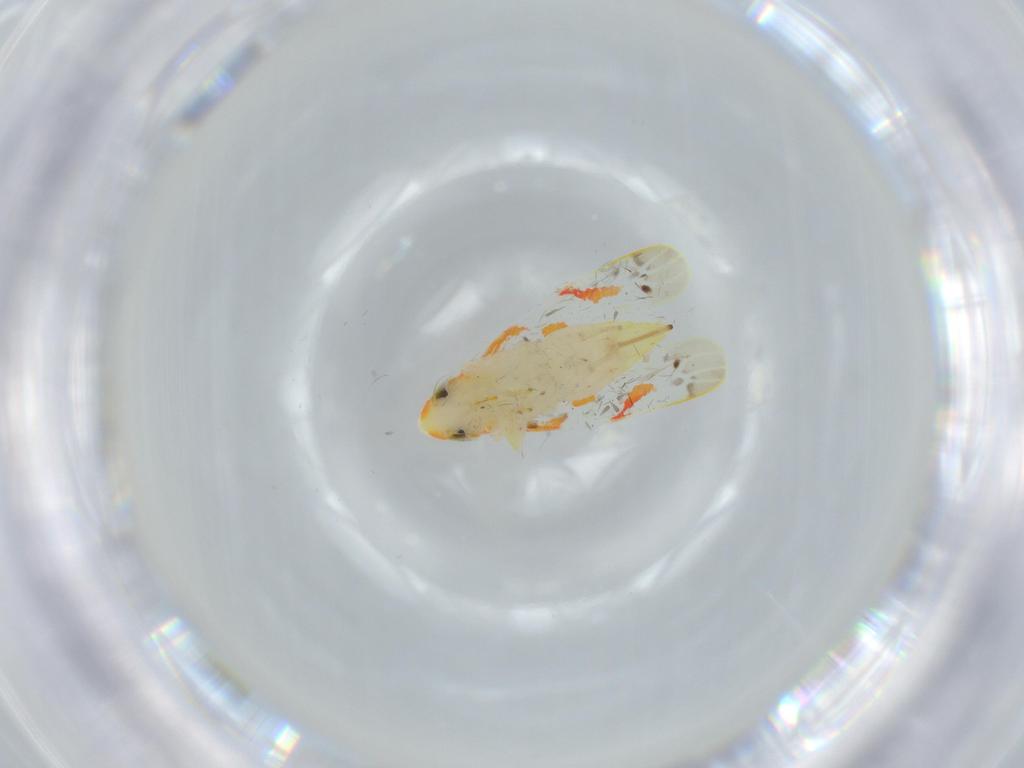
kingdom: Animalia
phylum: Arthropoda
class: Insecta
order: Hemiptera
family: Cicadellidae
